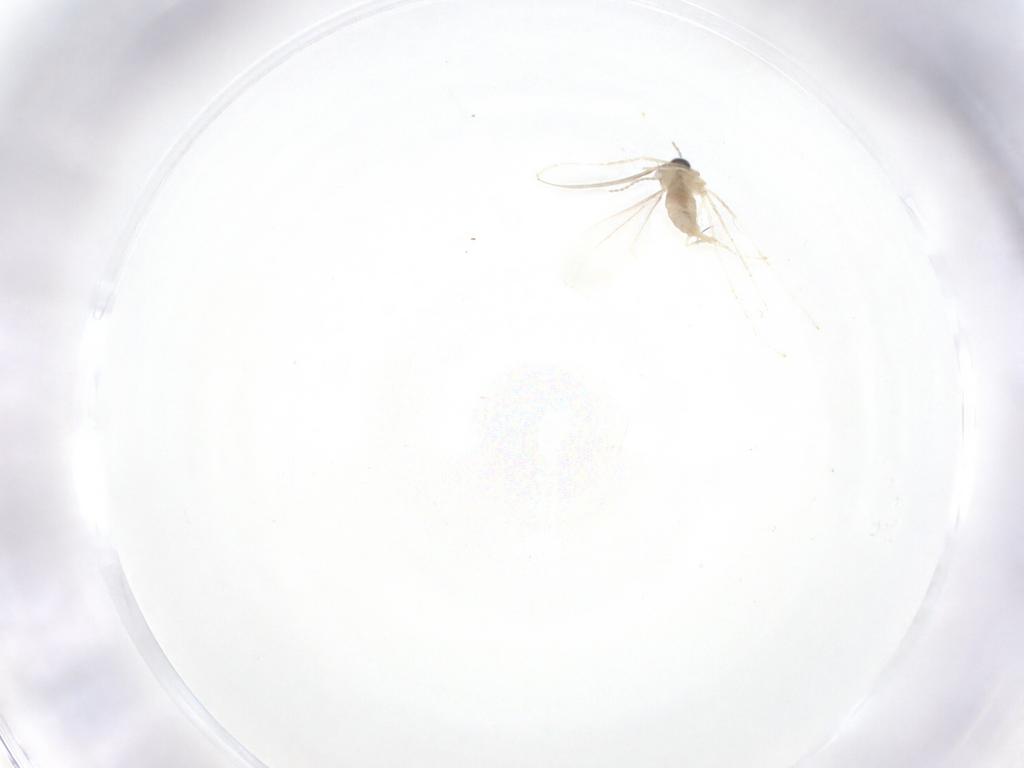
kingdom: Animalia
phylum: Arthropoda
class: Insecta
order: Diptera
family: Cecidomyiidae
